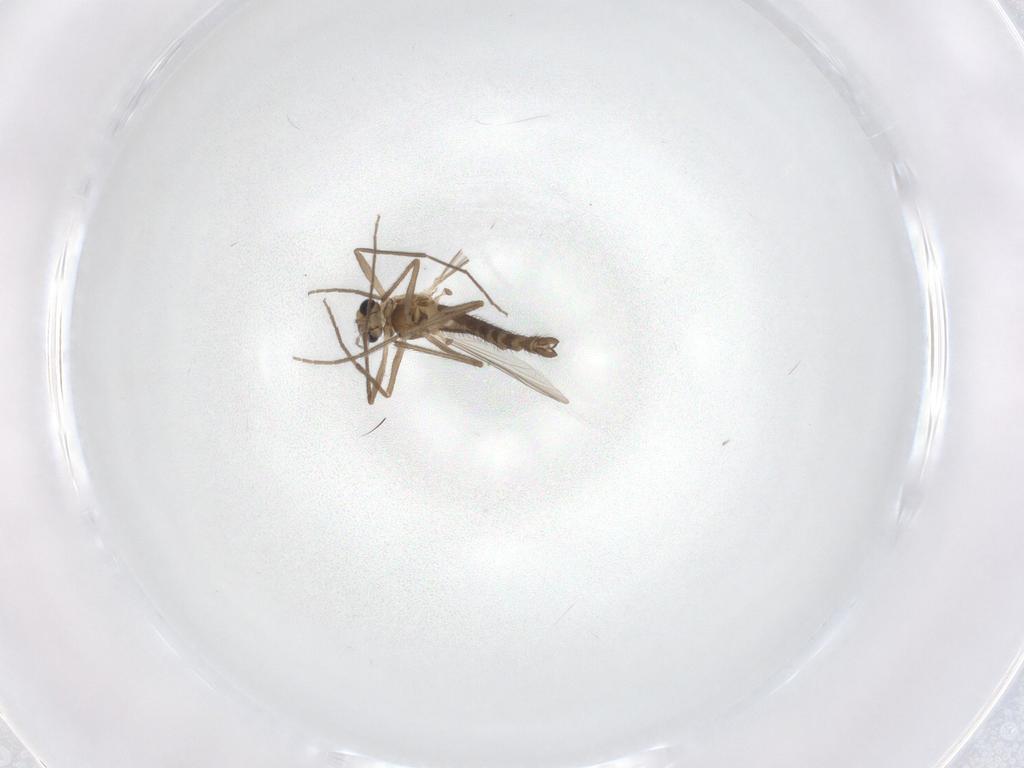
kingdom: Animalia
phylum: Arthropoda
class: Insecta
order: Diptera
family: Chironomidae
